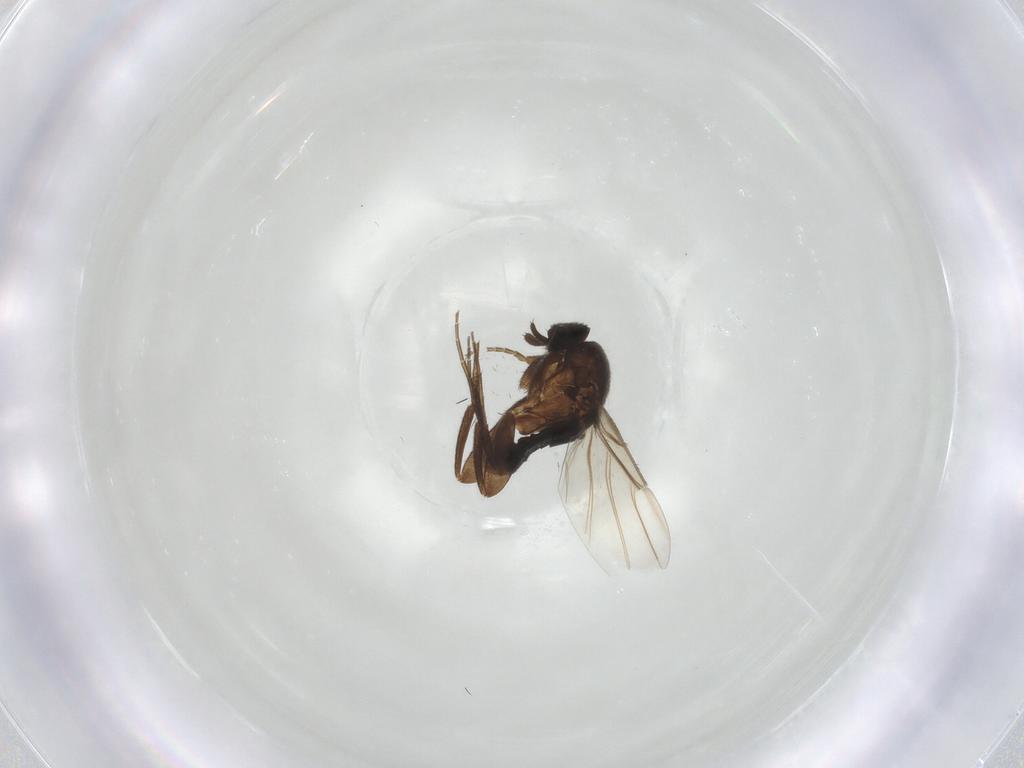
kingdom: Animalia
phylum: Arthropoda
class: Insecta
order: Diptera
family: Phoridae
